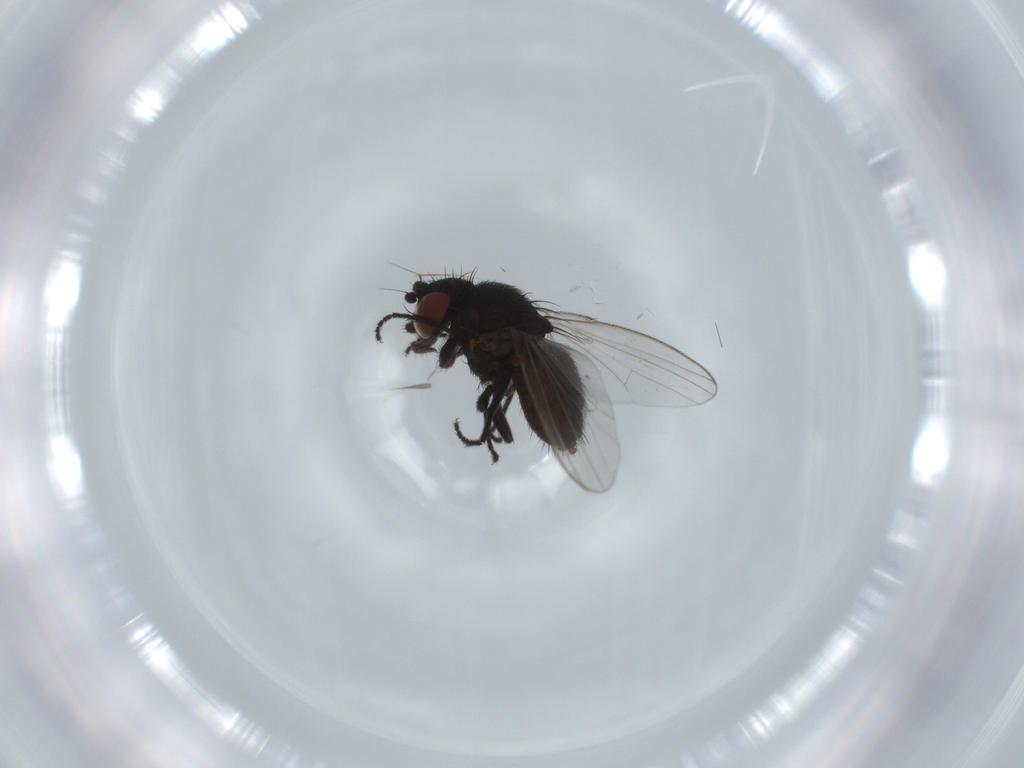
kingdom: Animalia
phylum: Arthropoda
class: Insecta
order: Diptera
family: Milichiidae
